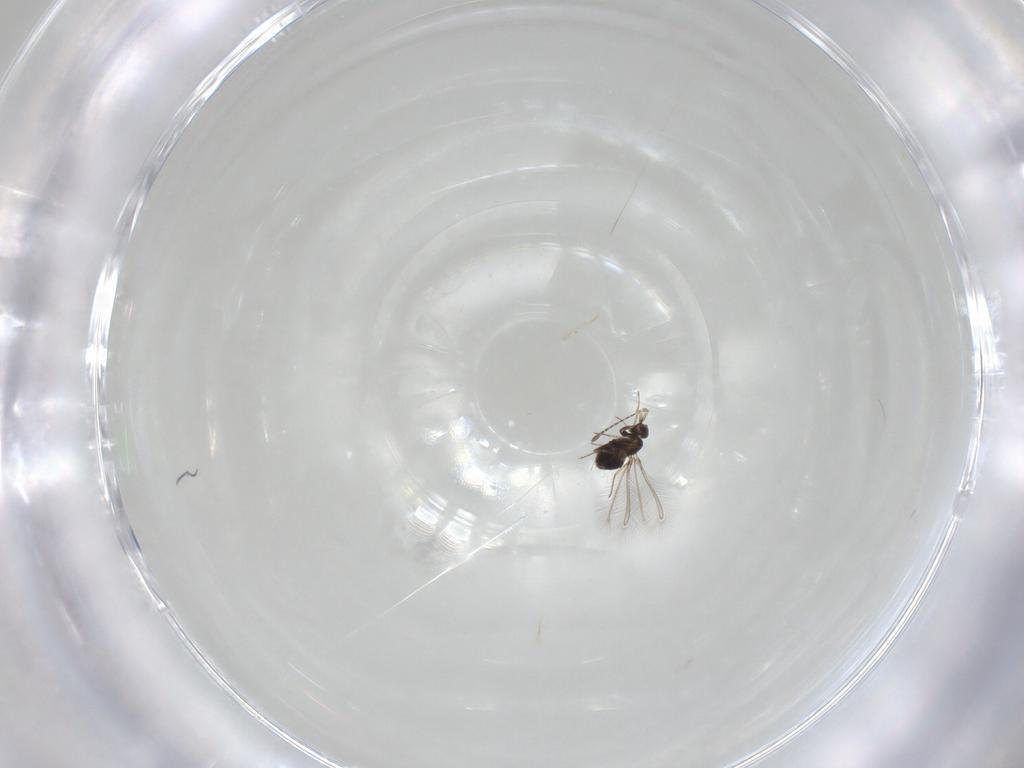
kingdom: Animalia
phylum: Arthropoda
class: Insecta
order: Hymenoptera
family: Mymaridae
